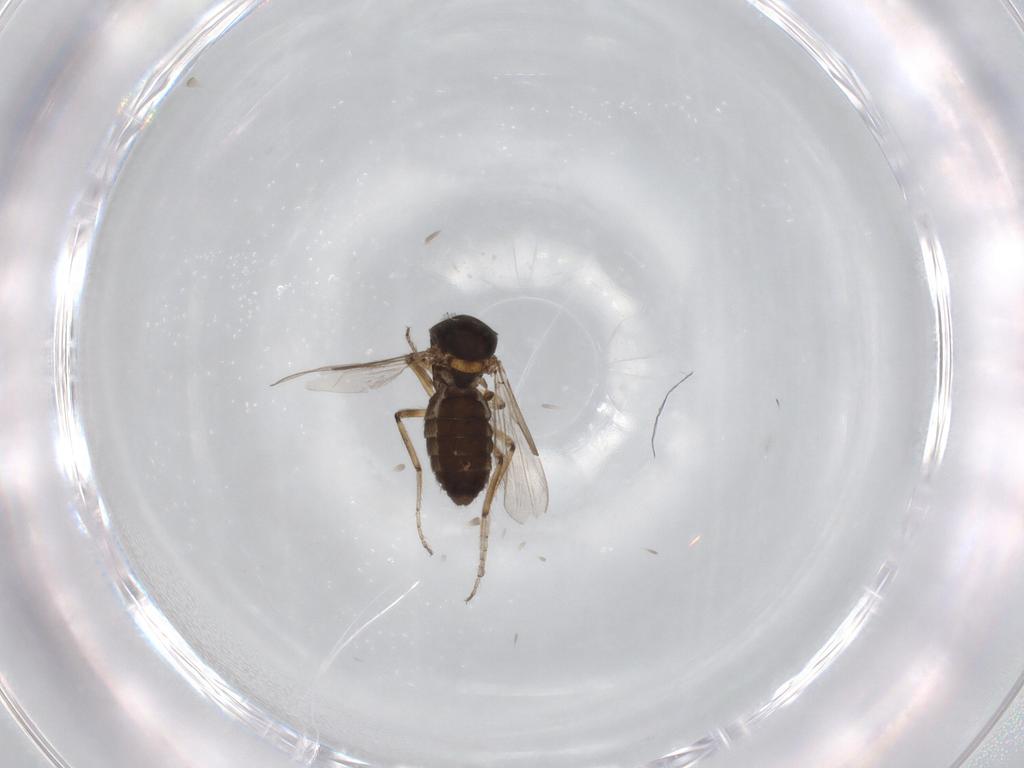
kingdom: Animalia
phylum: Arthropoda
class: Insecta
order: Diptera
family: Ceratopogonidae
